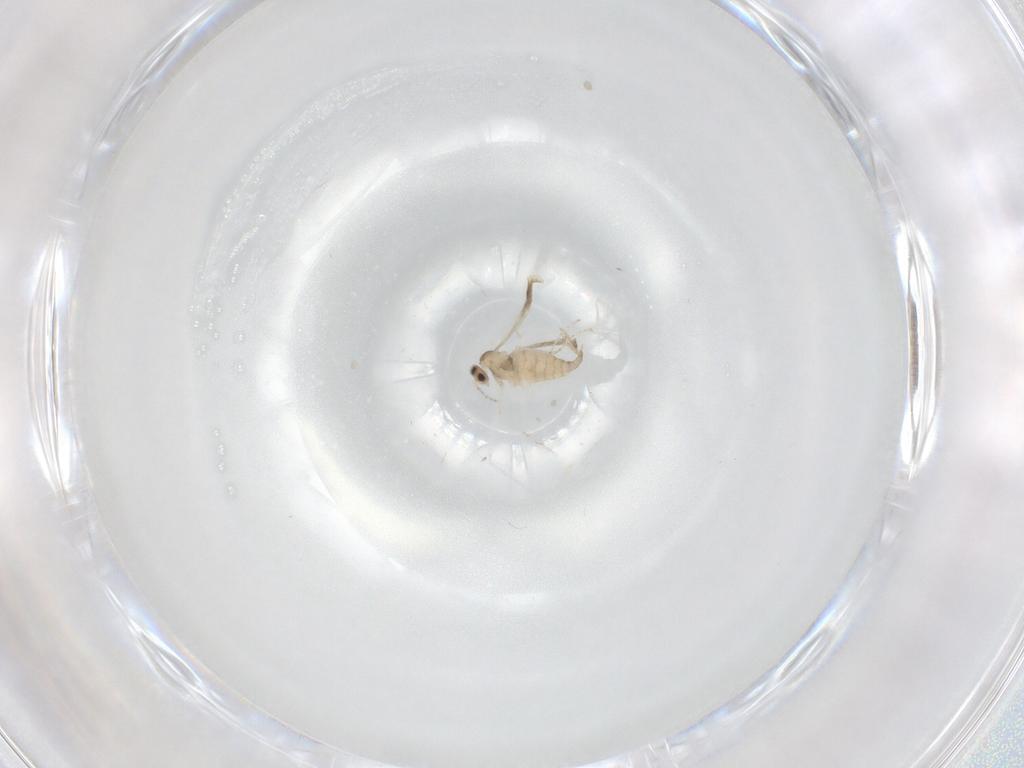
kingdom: Animalia
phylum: Arthropoda
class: Insecta
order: Diptera
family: Cecidomyiidae
